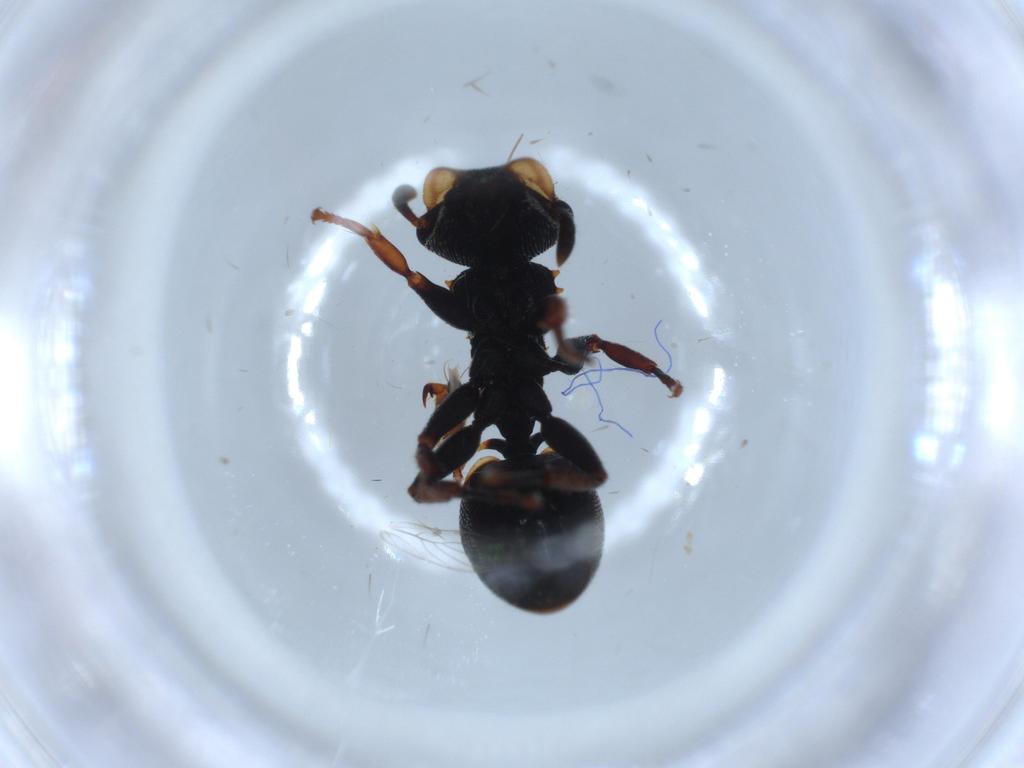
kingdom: Animalia
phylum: Arthropoda
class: Insecta
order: Hymenoptera
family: Formicidae
